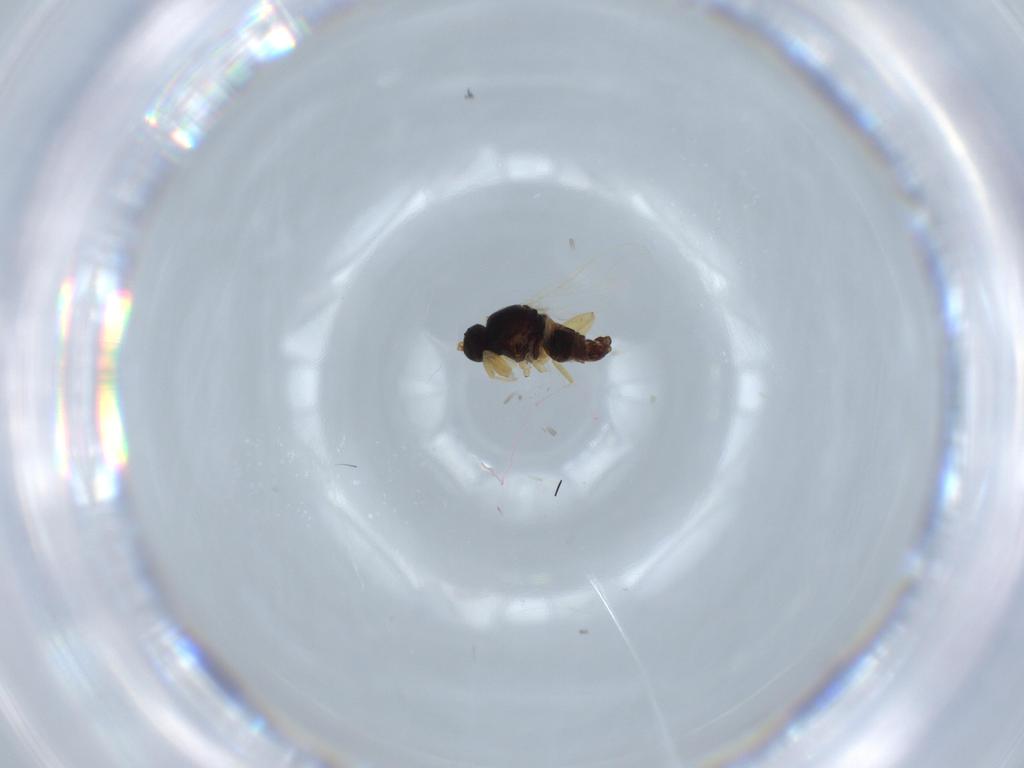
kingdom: Animalia
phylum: Arthropoda
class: Insecta
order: Diptera
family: Hybotidae
